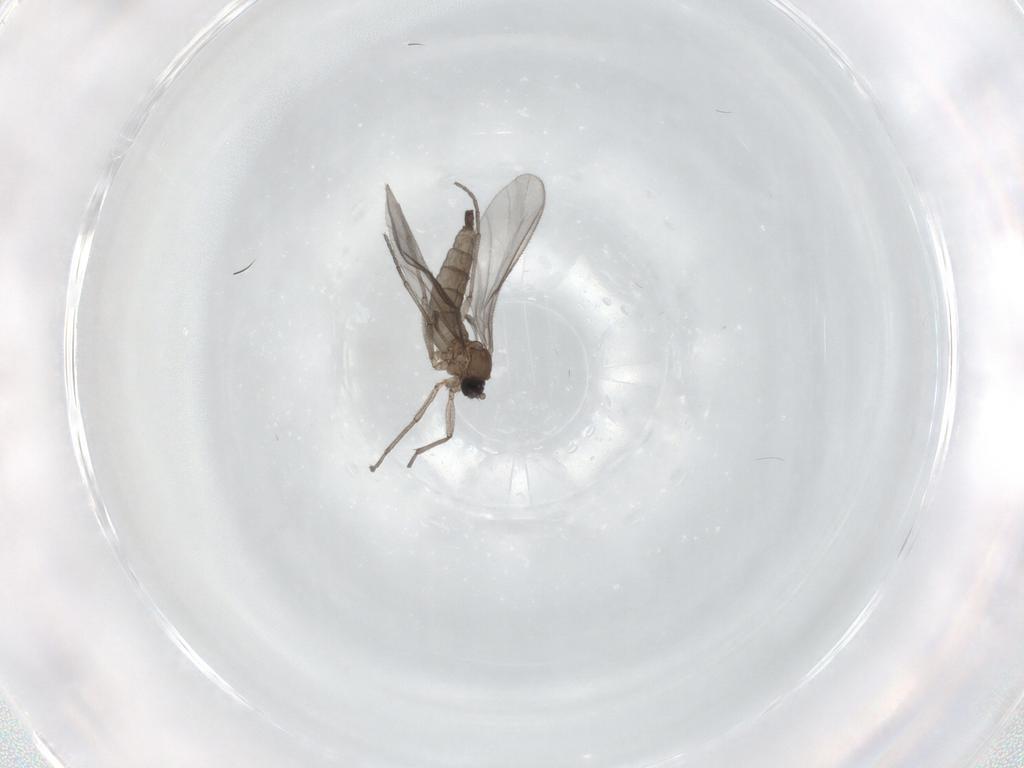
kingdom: Animalia
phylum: Arthropoda
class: Insecta
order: Diptera
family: Sciaridae
